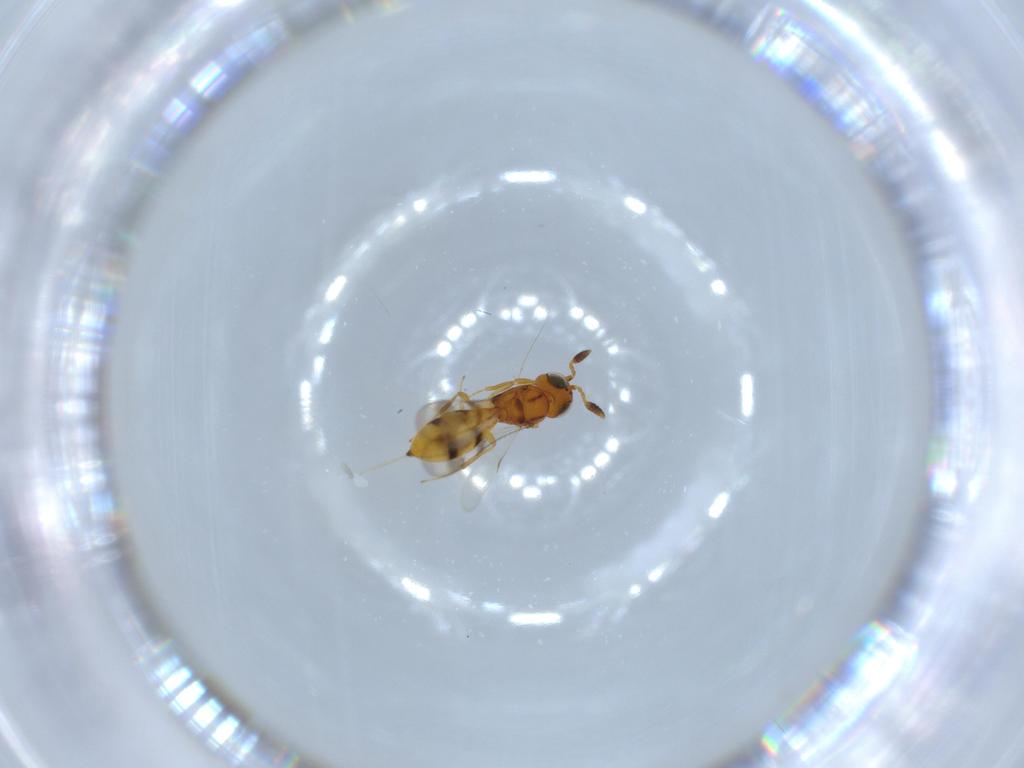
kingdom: Animalia
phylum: Arthropoda
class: Insecta
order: Hymenoptera
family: Scelionidae
